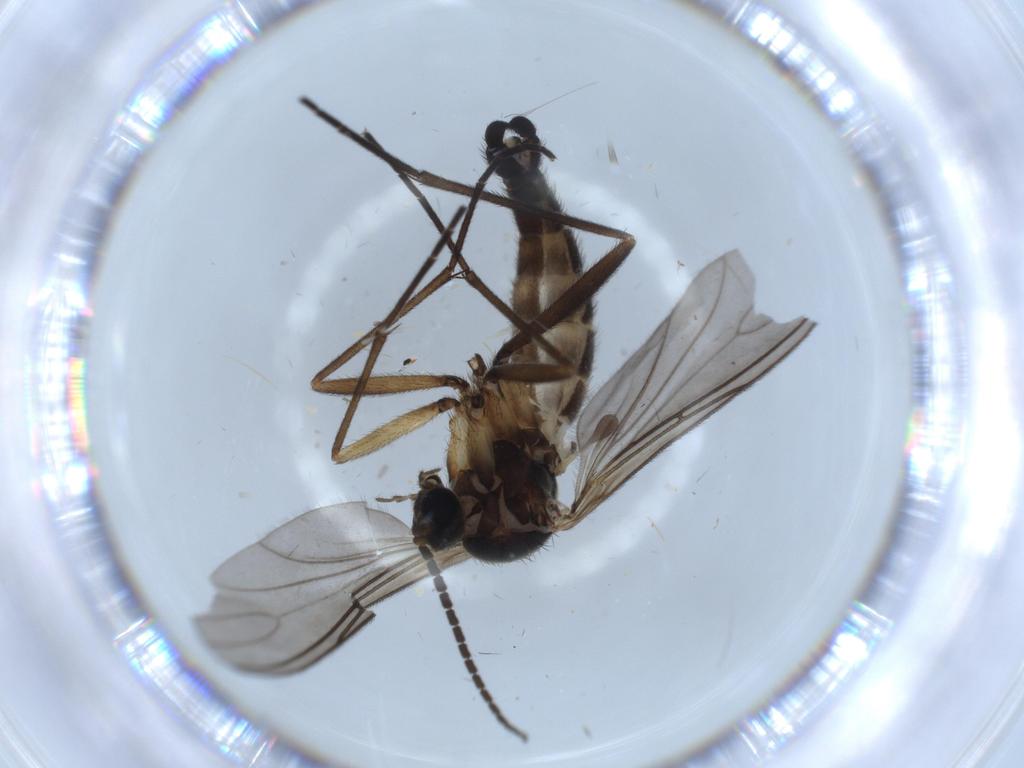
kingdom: Animalia
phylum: Arthropoda
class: Insecta
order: Diptera
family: Sciaridae
